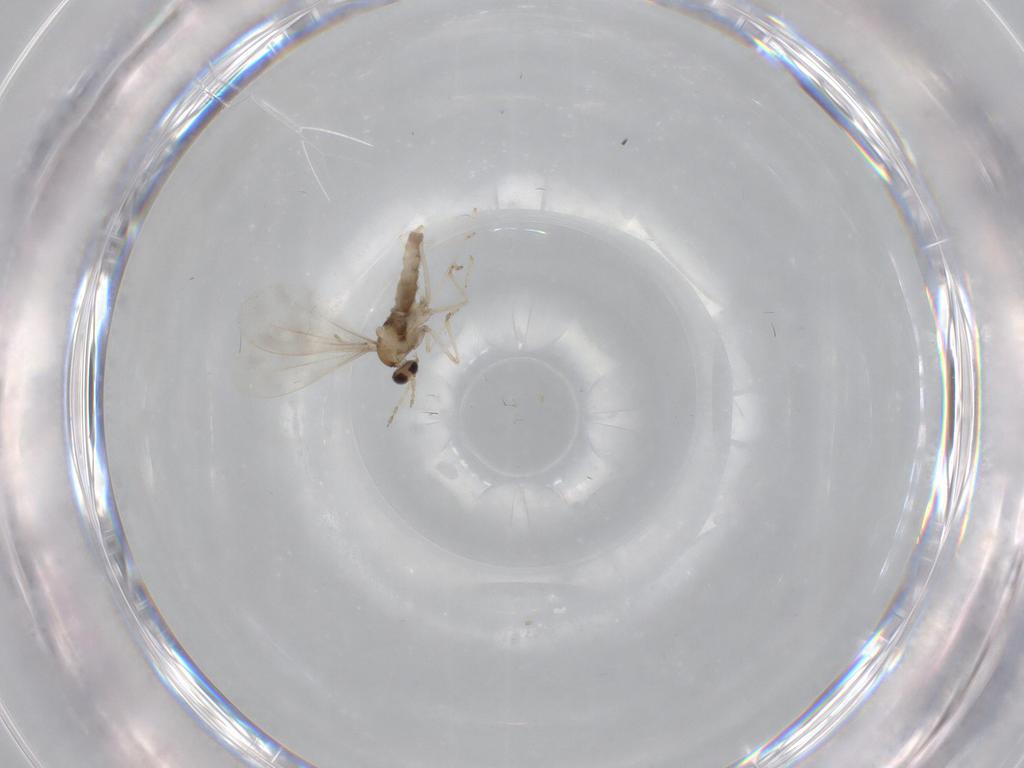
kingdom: Animalia
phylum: Arthropoda
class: Insecta
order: Diptera
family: Cecidomyiidae
